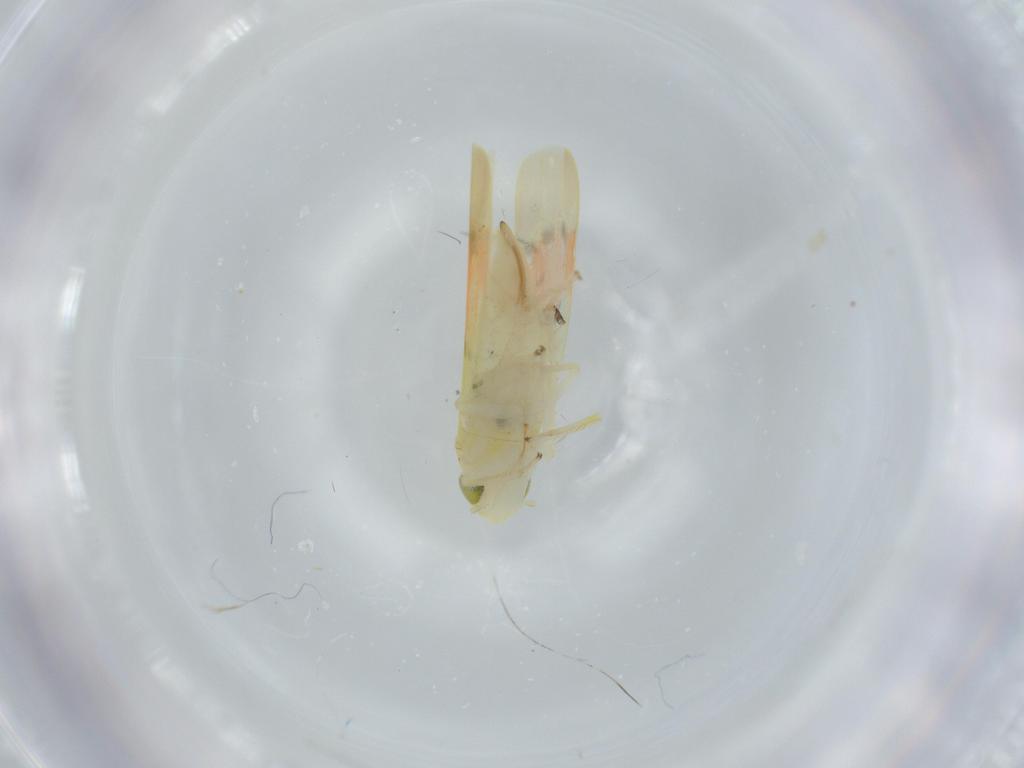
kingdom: Animalia
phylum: Arthropoda
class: Insecta
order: Hemiptera
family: Cicadellidae
